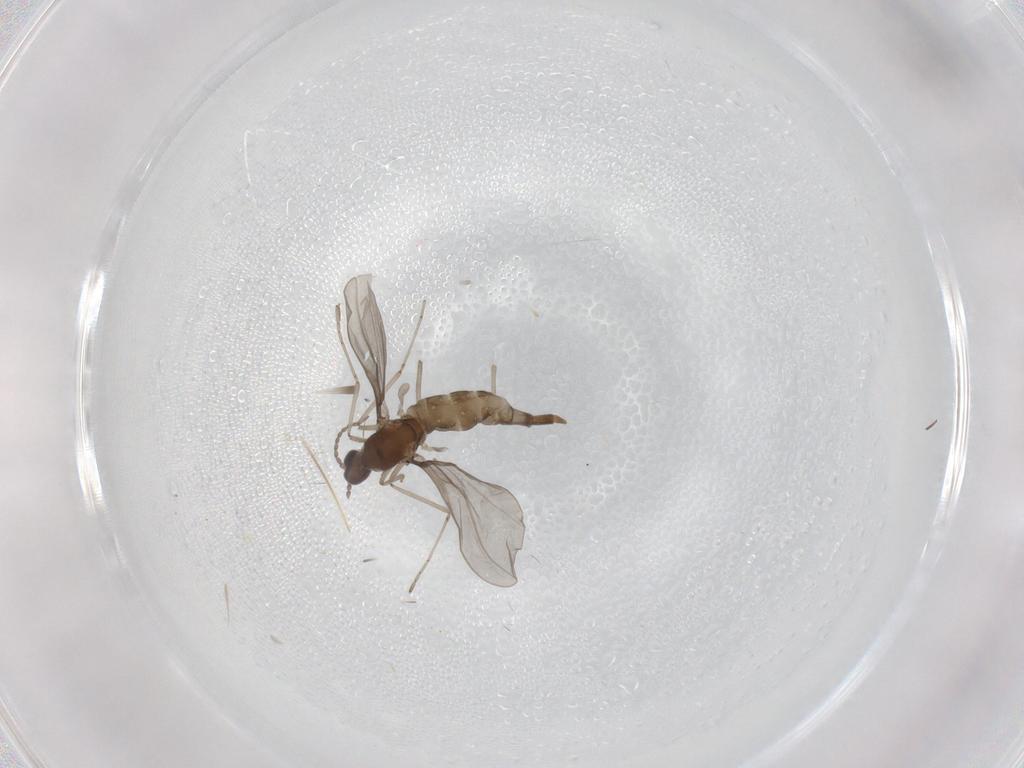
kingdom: Animalia
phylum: Arthropoda
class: Insecta
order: Diptera
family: Cecidomyiidae
